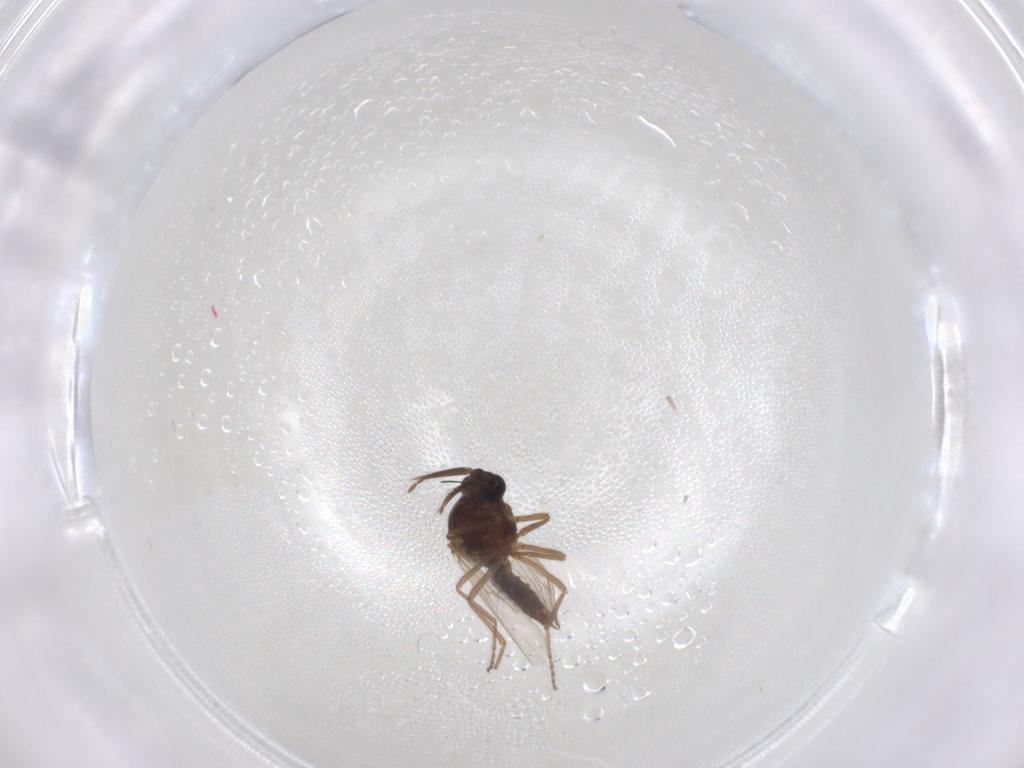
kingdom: Animalia
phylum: Arthropoda
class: Insecta
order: Diptera
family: Ceratopogonidae
